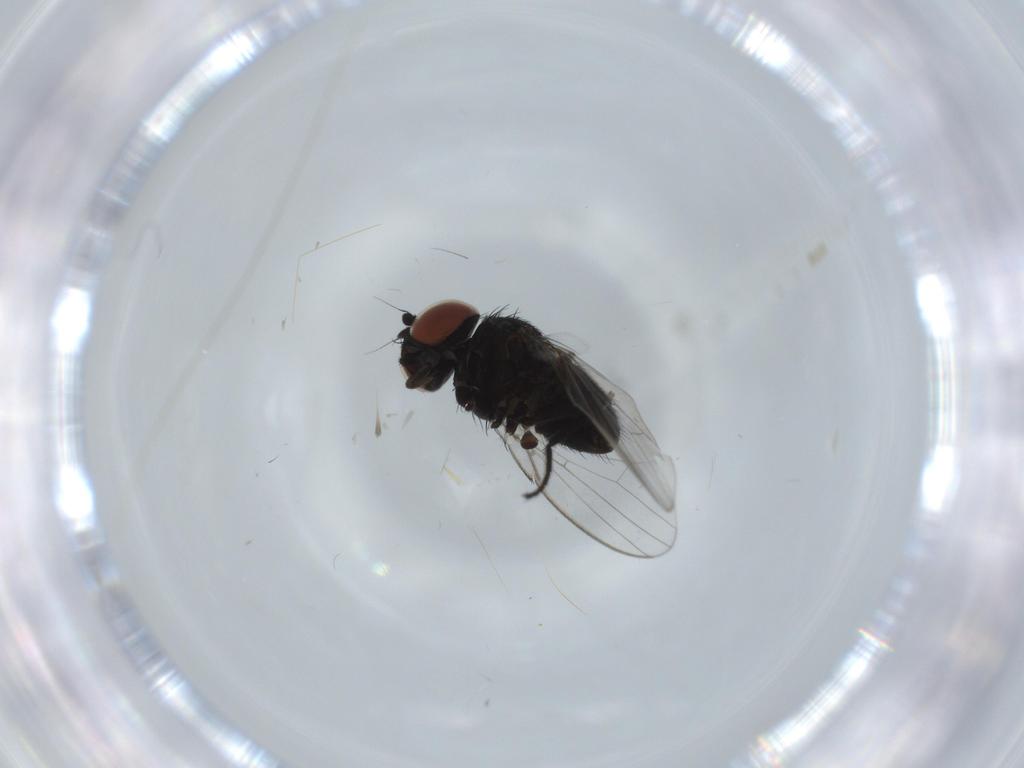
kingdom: Animalia
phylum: Arthropoda
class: Insecta
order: Diptera
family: Milichiidae
